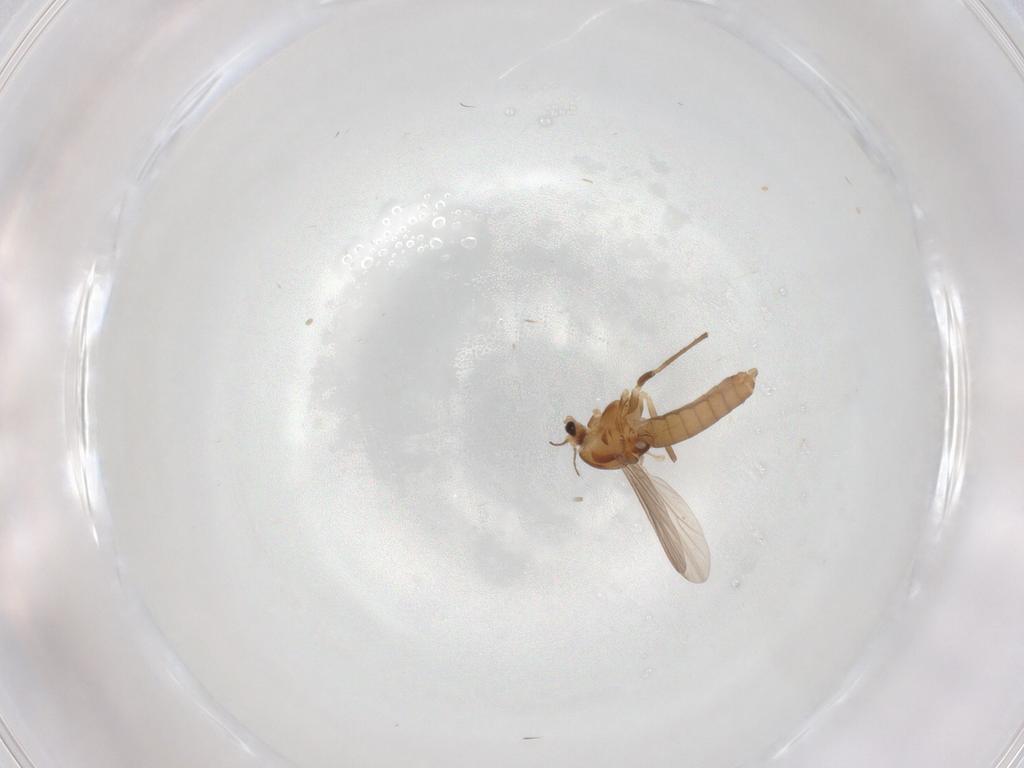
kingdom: Animalia
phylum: Arthropoda
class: Insecta
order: Diptera
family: Chironomidae
